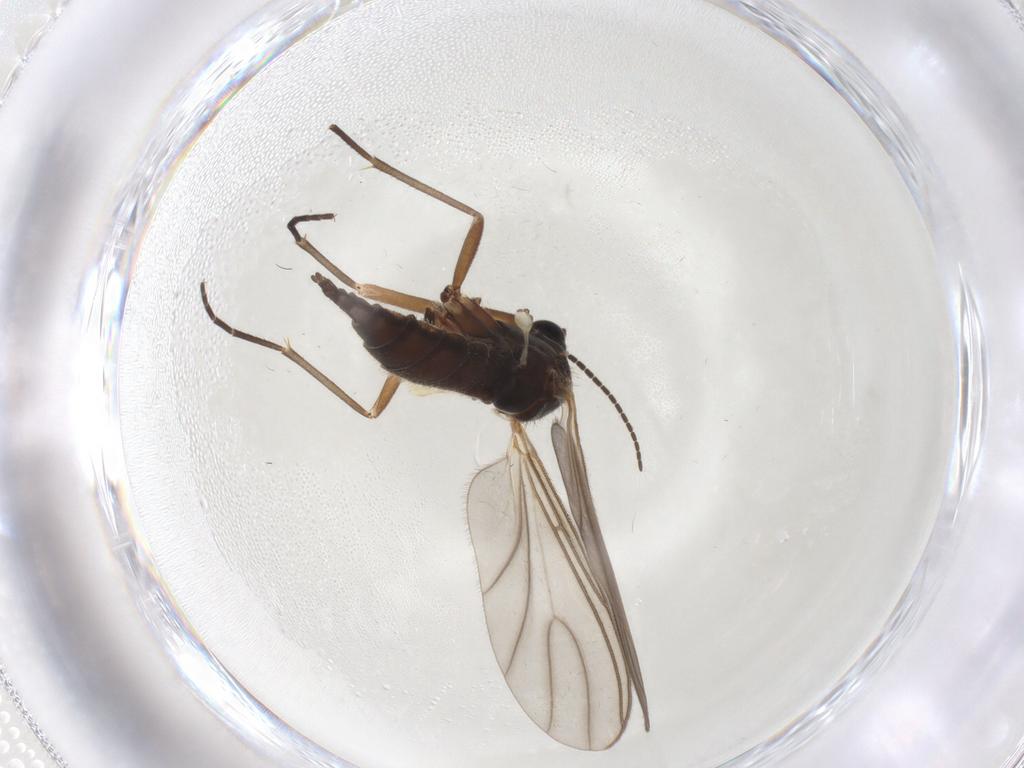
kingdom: Animalia
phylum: Arthropoda
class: Insecta
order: Diptera
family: Sciaridae
